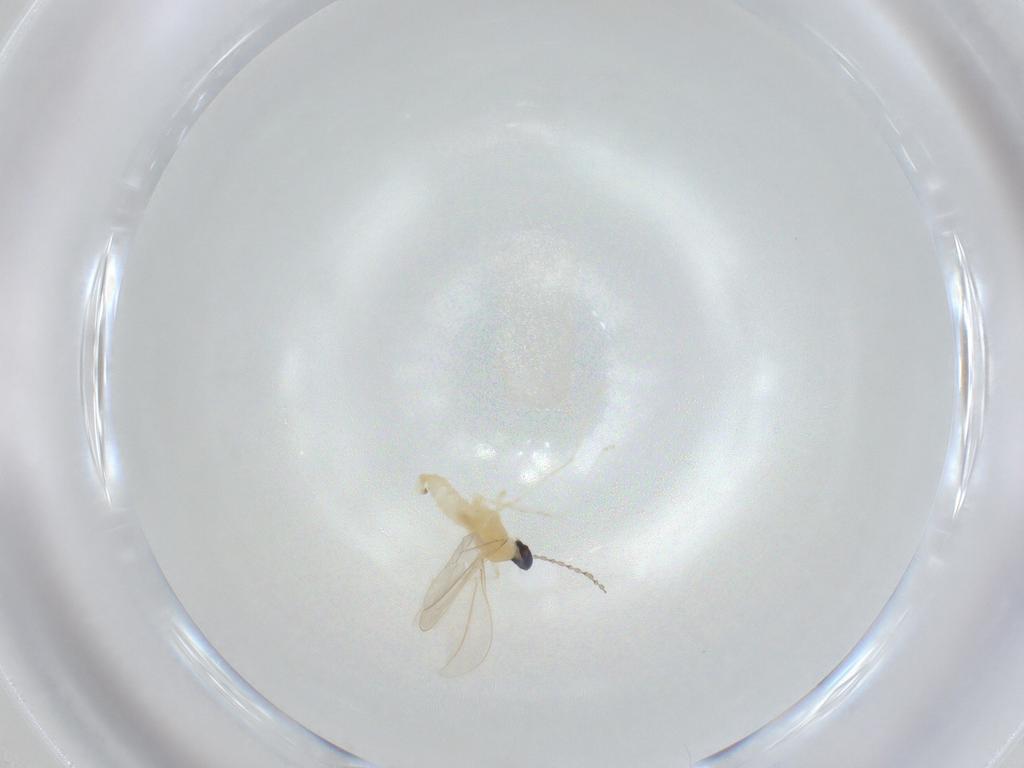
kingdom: Animalia
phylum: Arthropoda
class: Insecta
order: Diptera
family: Cecidomyiidae
